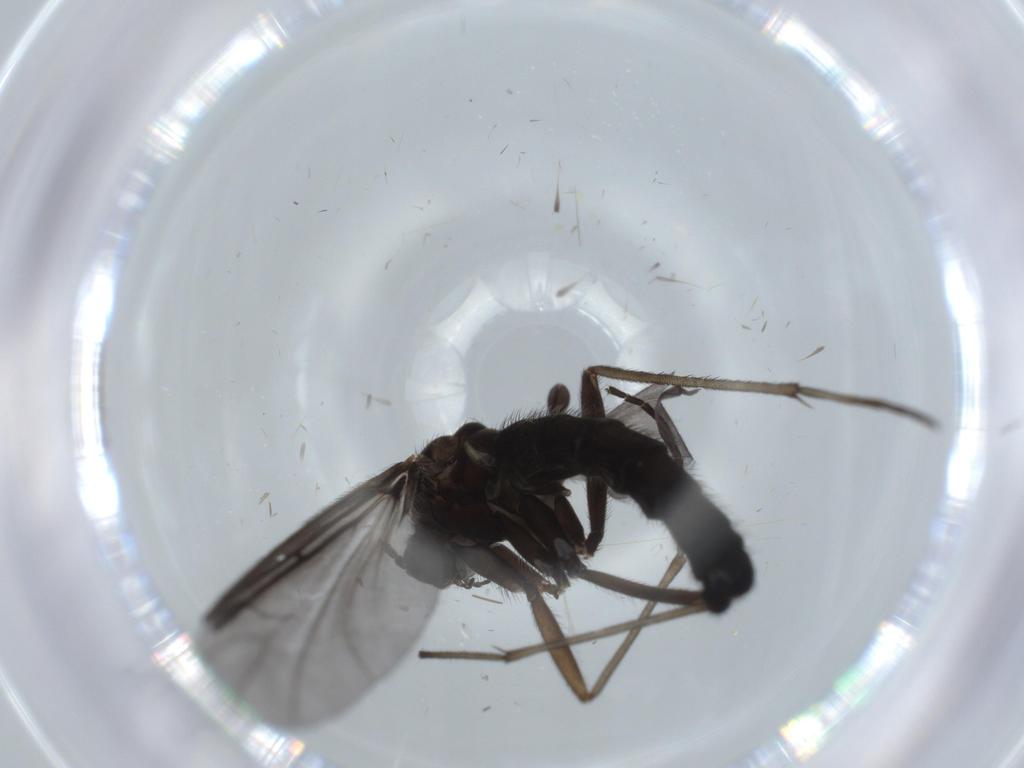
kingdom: Animalia
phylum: Arthropoda
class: Insecta
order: Diptera
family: Sciaridae
